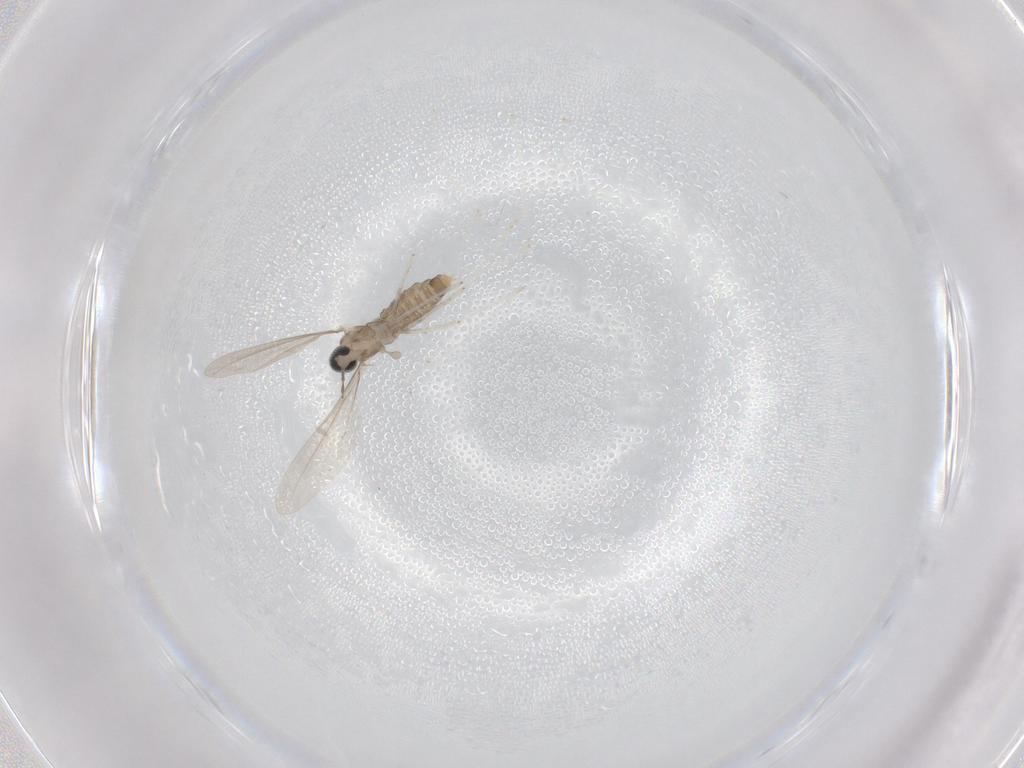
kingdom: Animalia
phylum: Arthropoda
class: Insecta
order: Diptera
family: Cecidomyiidae
